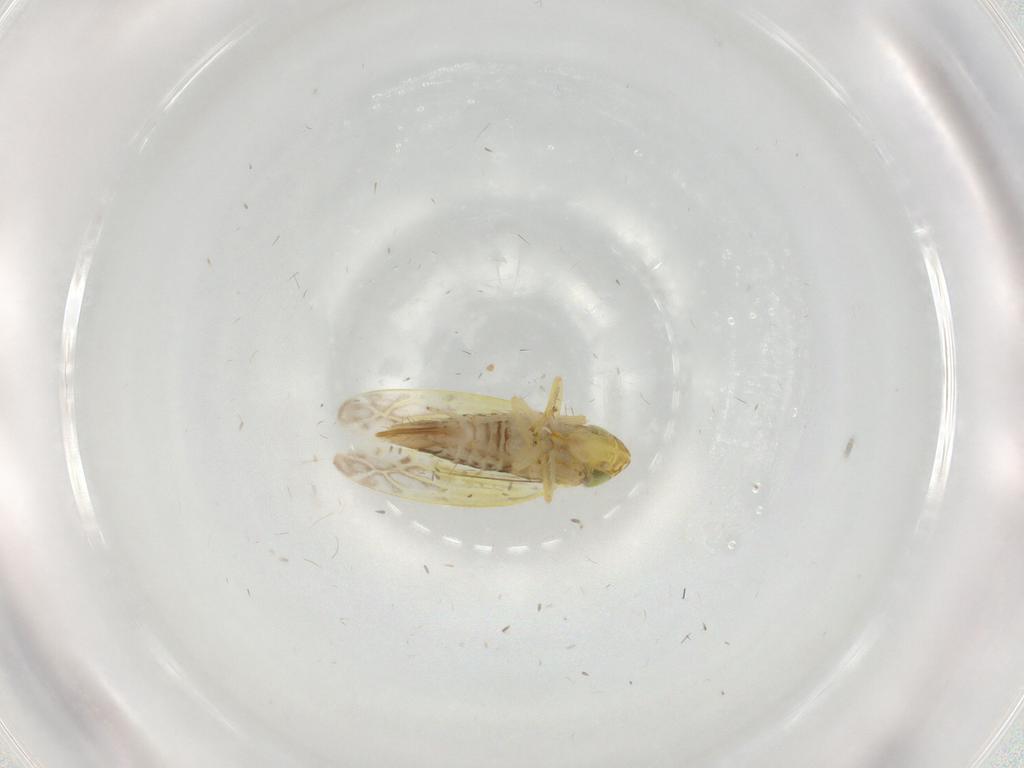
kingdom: Animalia
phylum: Arthropoda
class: Insecta
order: Hemiptera
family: Cicadellidae
